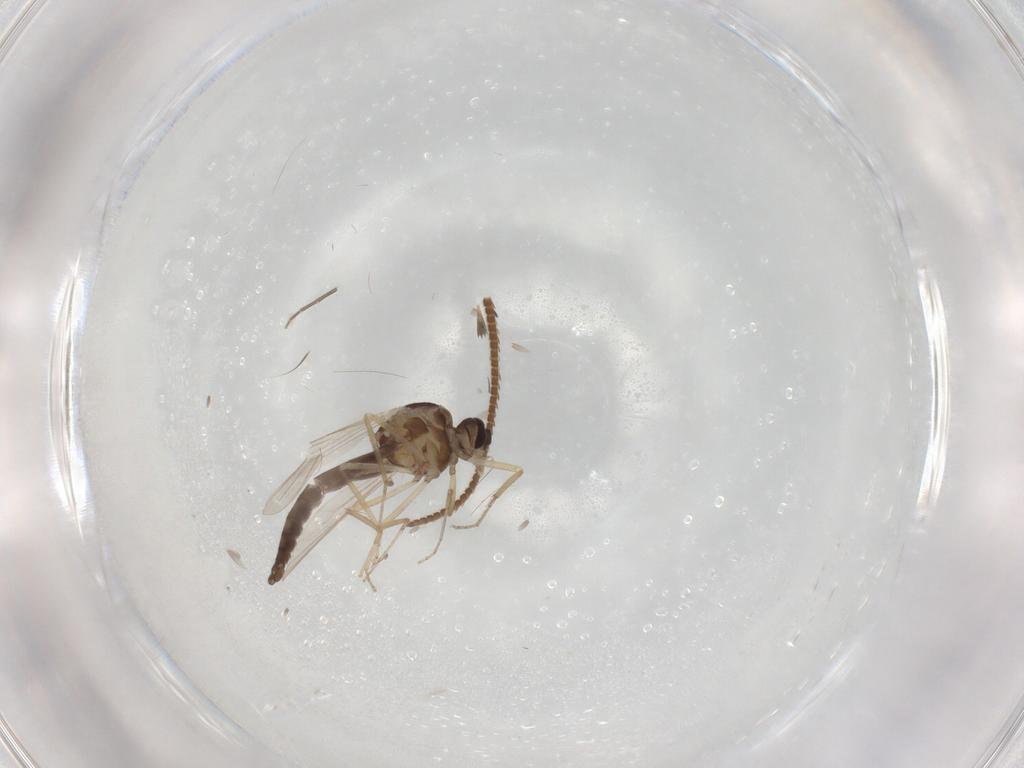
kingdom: Animalia
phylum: Arthropoda
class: Insecta
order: Diptera
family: Ceratopogonidae
